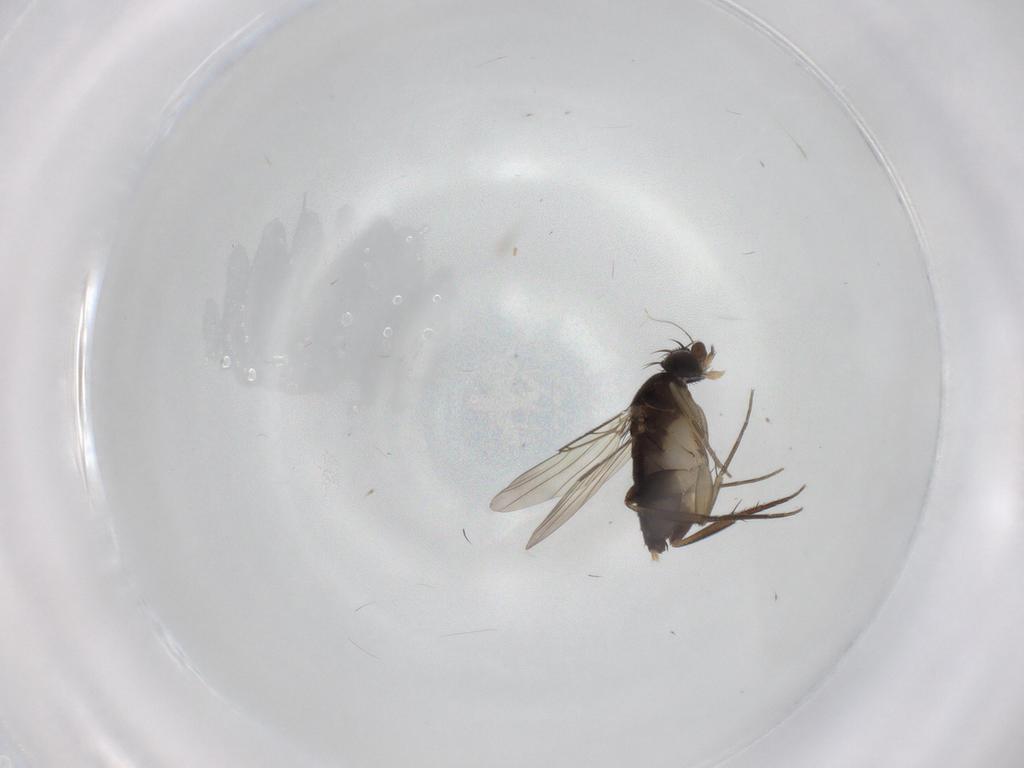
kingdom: Animalia
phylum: Arthropoda
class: Insecta
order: Diptera
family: Phoridae
